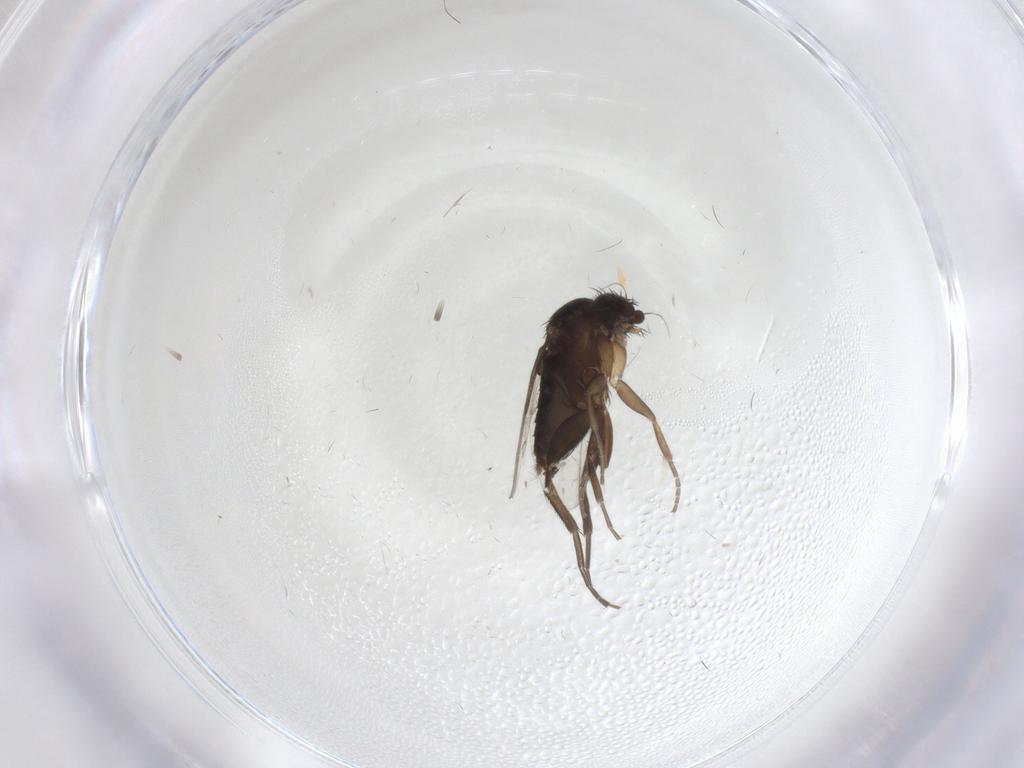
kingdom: Animalia
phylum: Arthropoda
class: Insecta
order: Diptera
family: Phoridae
